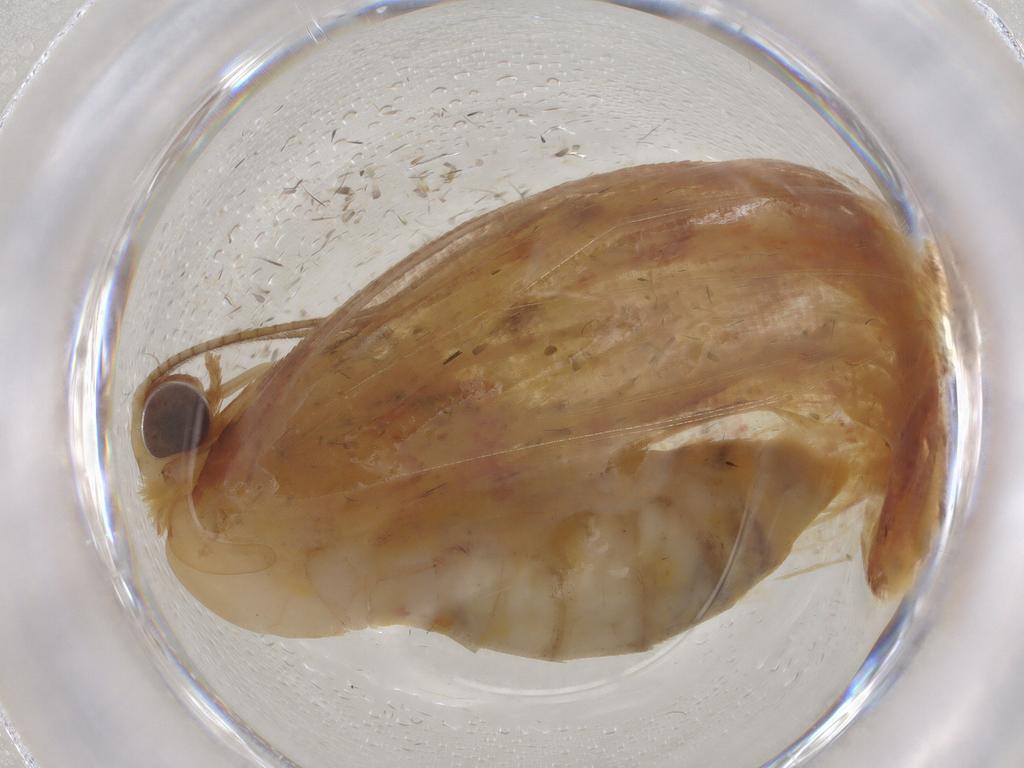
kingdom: Animalia
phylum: Arthropoda
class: Insecta
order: Lepidoptera
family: Geometridae
